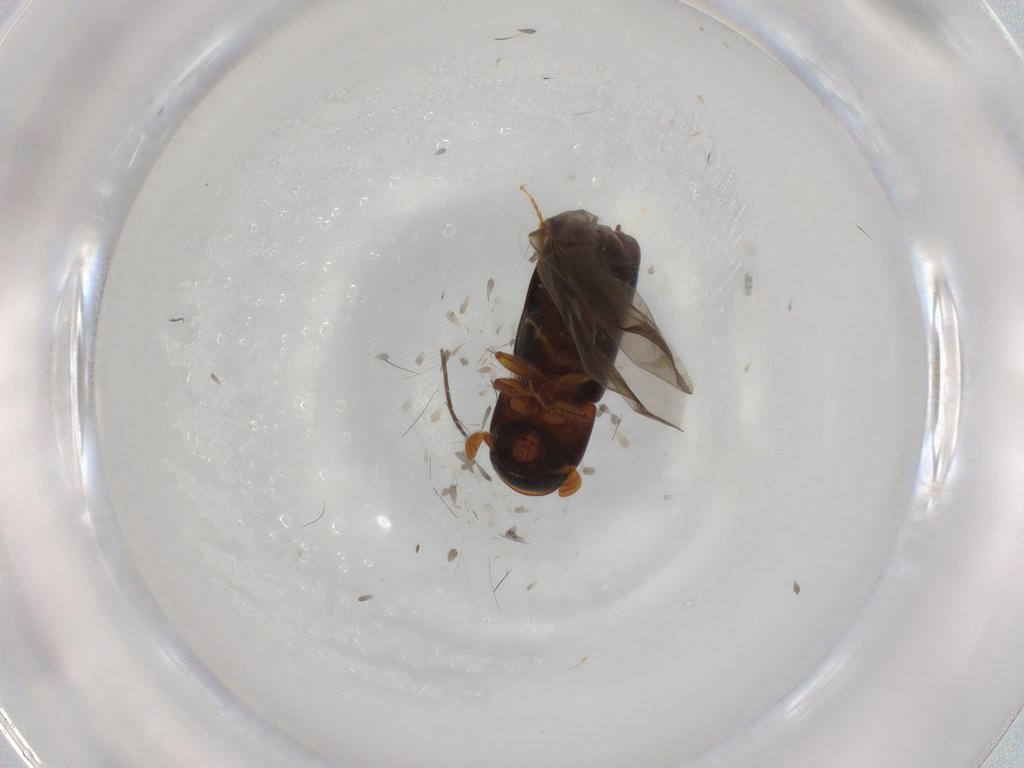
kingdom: Animalia
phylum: Arthropoda
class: Insecta
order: Coleoptera
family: Curculionidae
